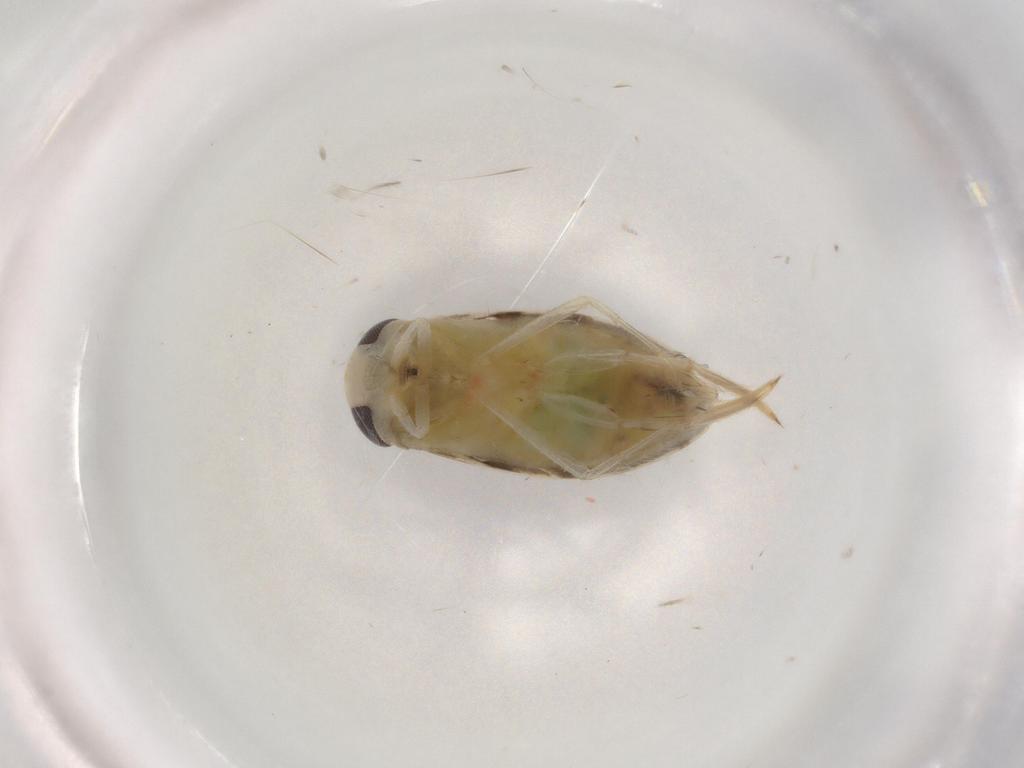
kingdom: Animalia
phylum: Arthropoda
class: Insecta
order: Hemiptera
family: Corixidae
